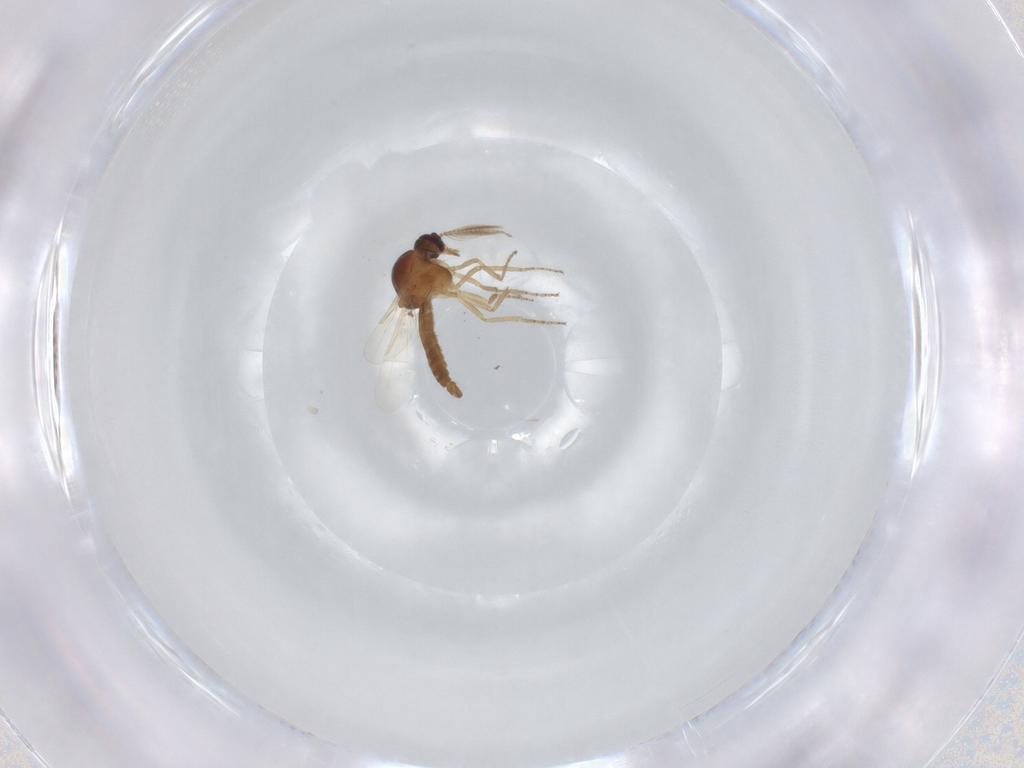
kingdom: Animalia
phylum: Arthropoda
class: Insecta
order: Diptera
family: Ceratopogonidae
